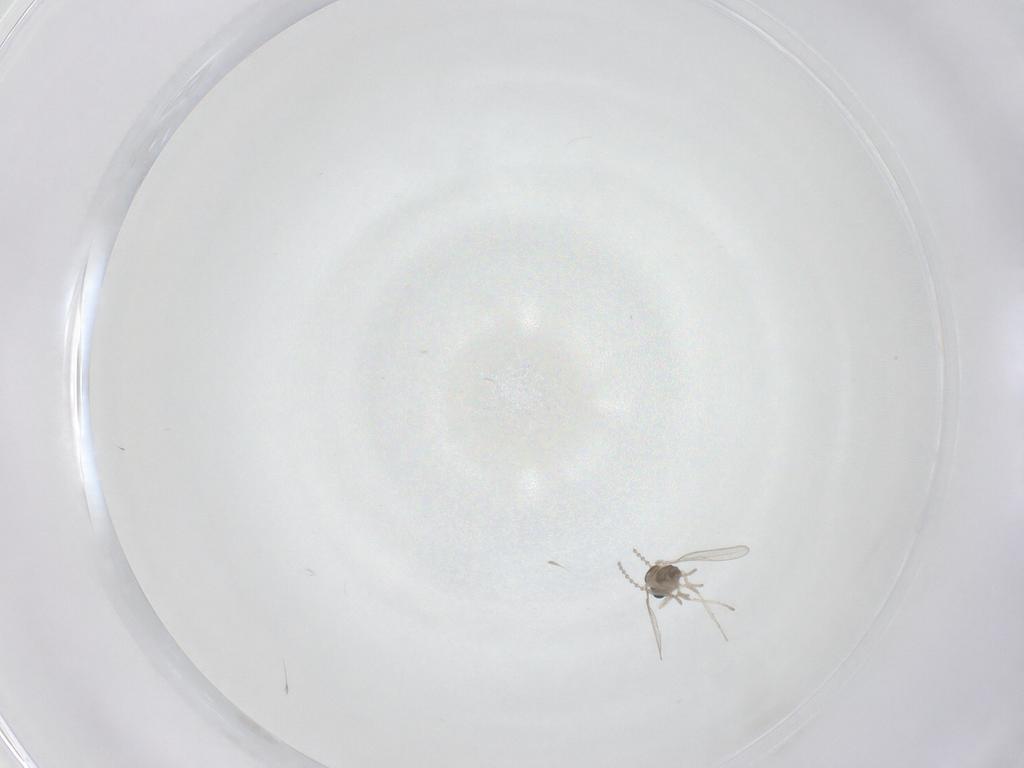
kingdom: Animalia
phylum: Arthropoda
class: Insecta
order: Diptera
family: Cecidomyiidae
